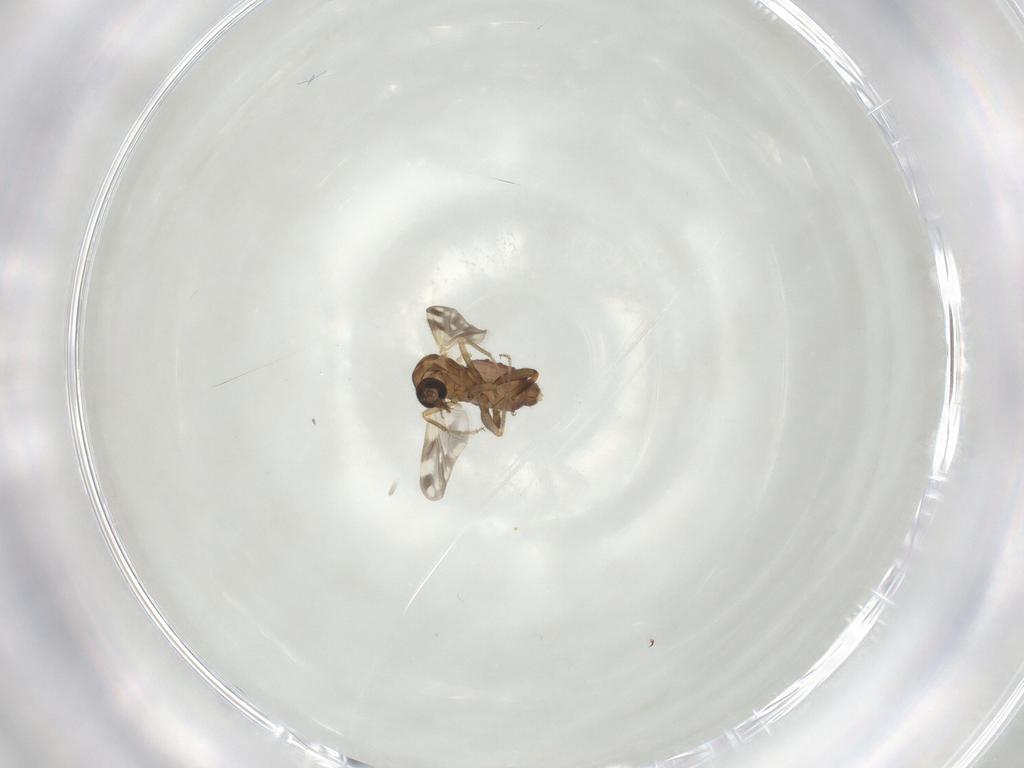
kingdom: Animalia
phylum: Arthropoda
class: Insecta
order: Diptera
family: Ceratopogonidae
